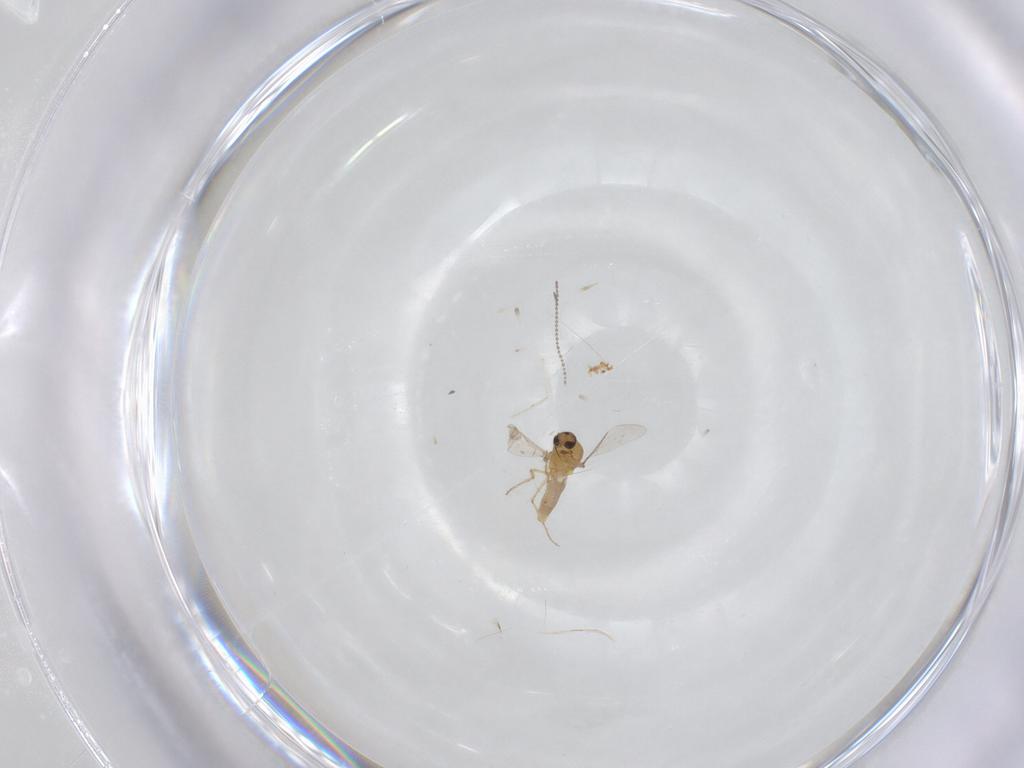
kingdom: Animalia
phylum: Arthropoda
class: Insecta
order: Diptera
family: Ceratopogonidae
